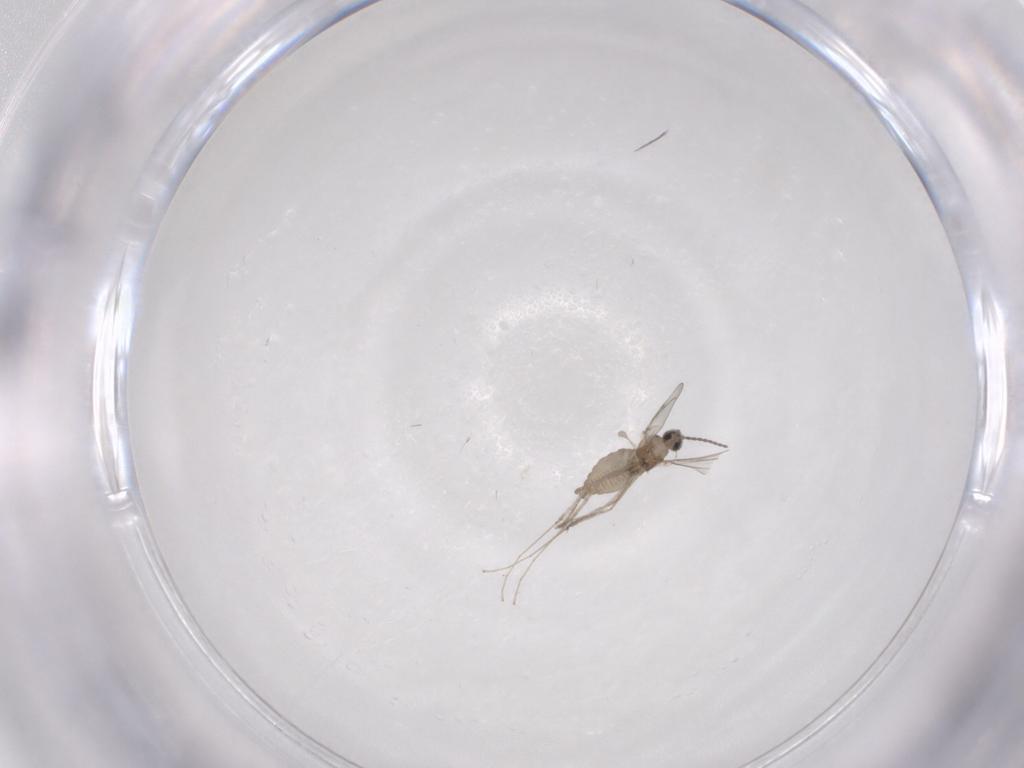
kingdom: Animalia
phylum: Arthropoda
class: Insecta
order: Diptera
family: Cecidomyiidae
